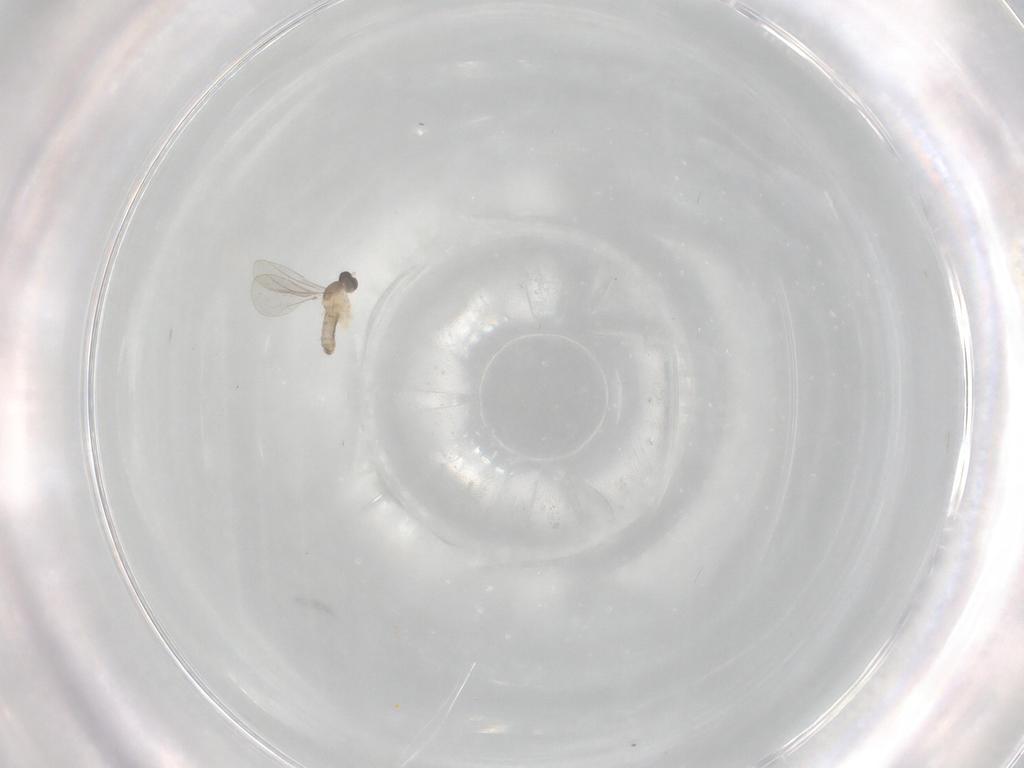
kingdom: Animalia
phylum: Arthropoda
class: Insecta
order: Diptera
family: Cecidomyiidae
